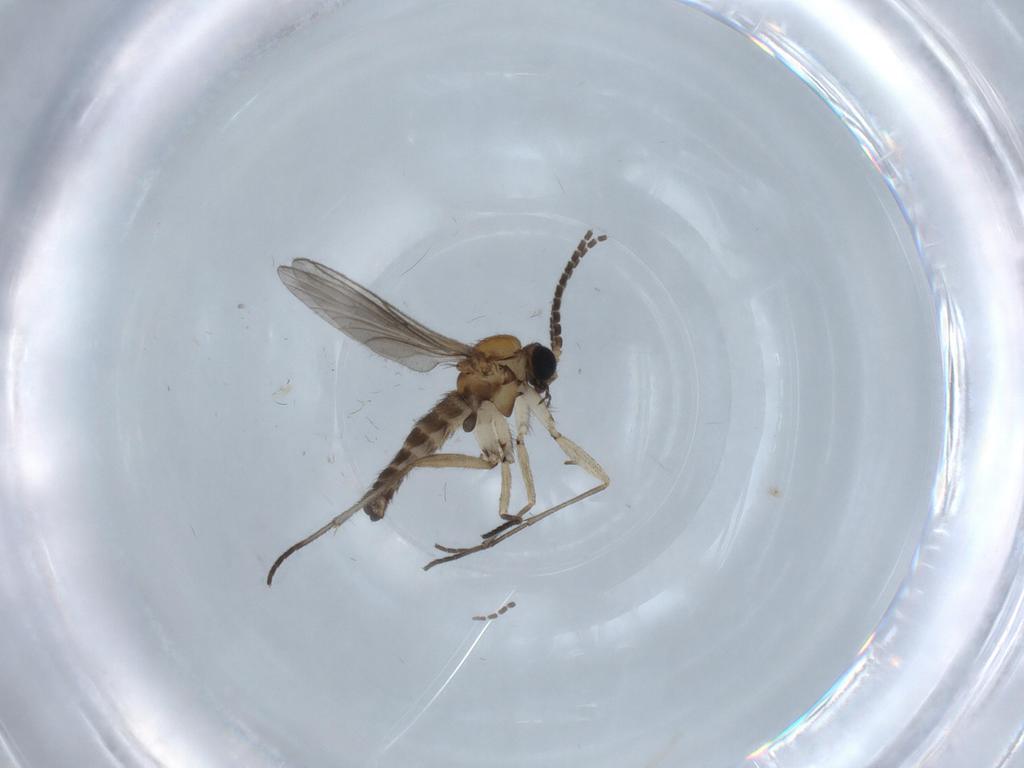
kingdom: Animalia
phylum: Arthropoda
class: Insecta
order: Diptera
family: Sciaridae
